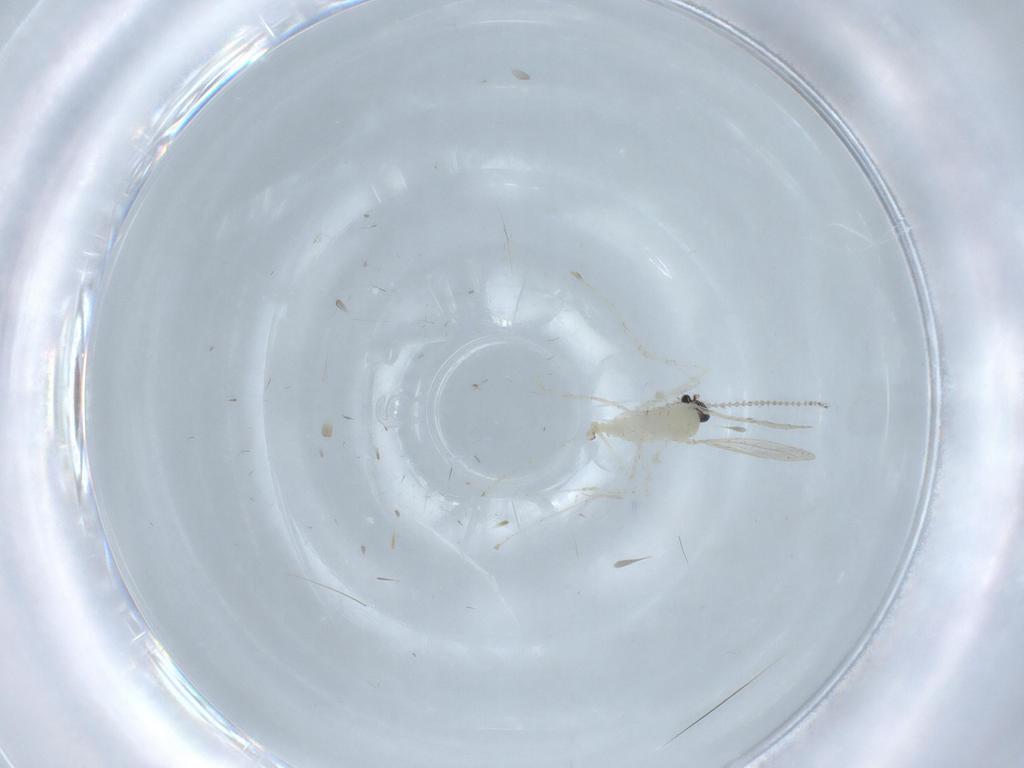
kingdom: Animalia
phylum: Arthropoda
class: Insecta
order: Diptera
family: Cecidomyiidae
